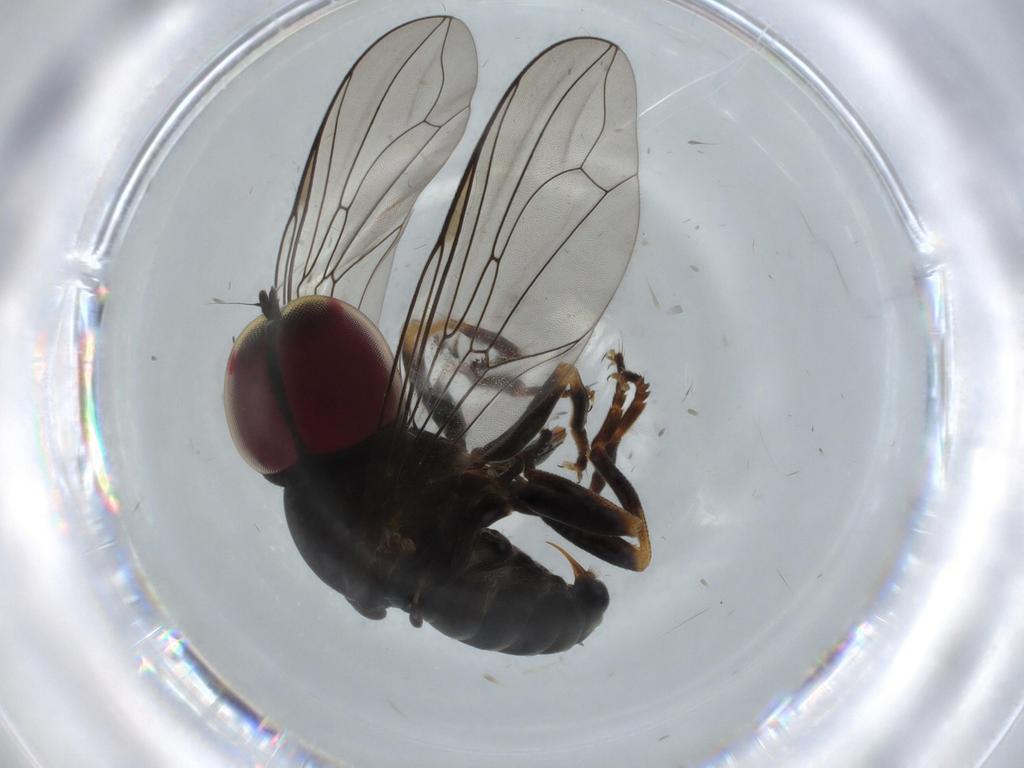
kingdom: Animalia
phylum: Arthropoda
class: Insecta
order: Diptera
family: Pipunculidae
